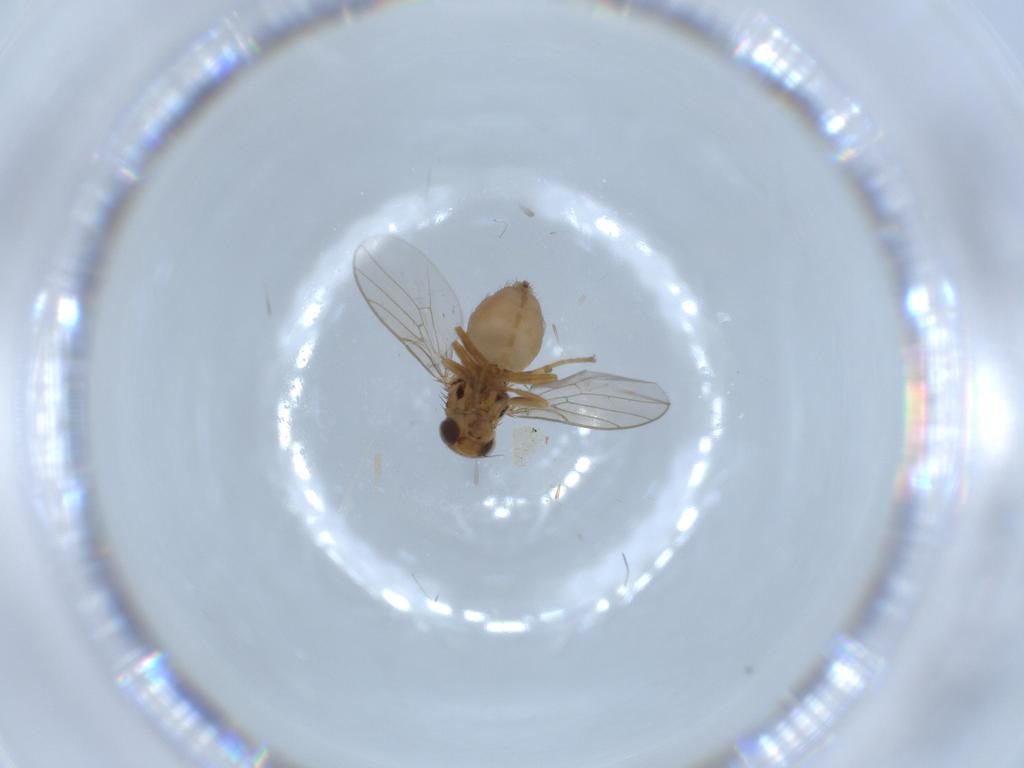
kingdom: Animalia
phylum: Arthropoda
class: Insecta
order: Diptera
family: Chloropidae
